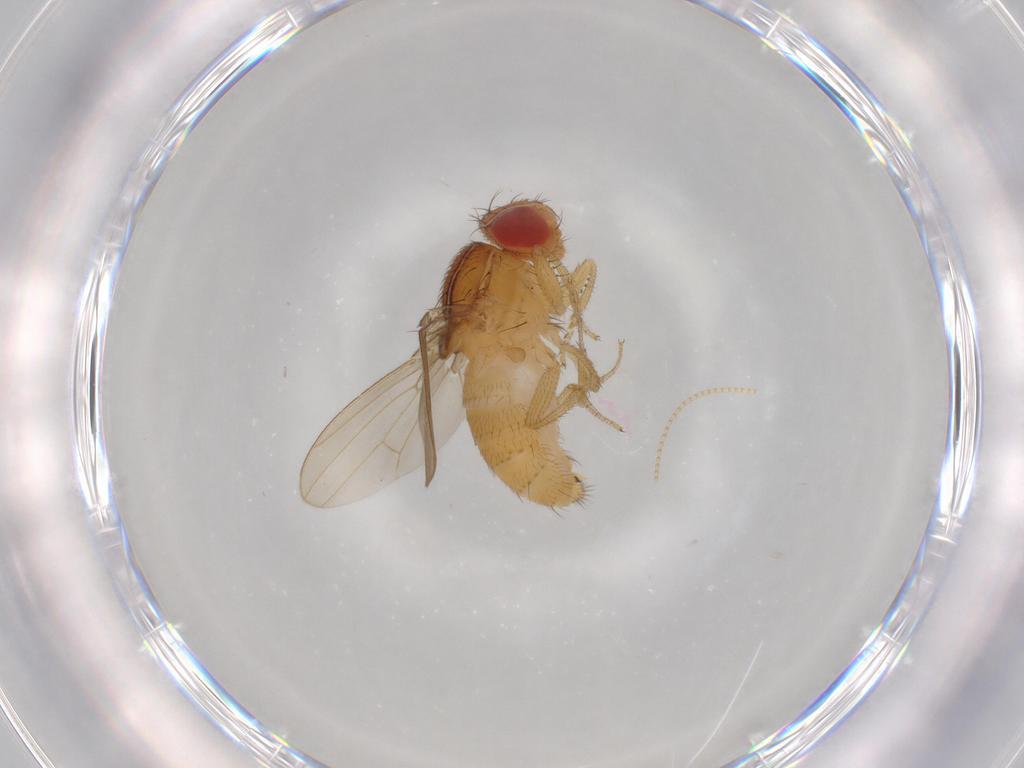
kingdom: Animalia
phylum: Arthropoda
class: Insecta
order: Diptera
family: Drosophilidae
